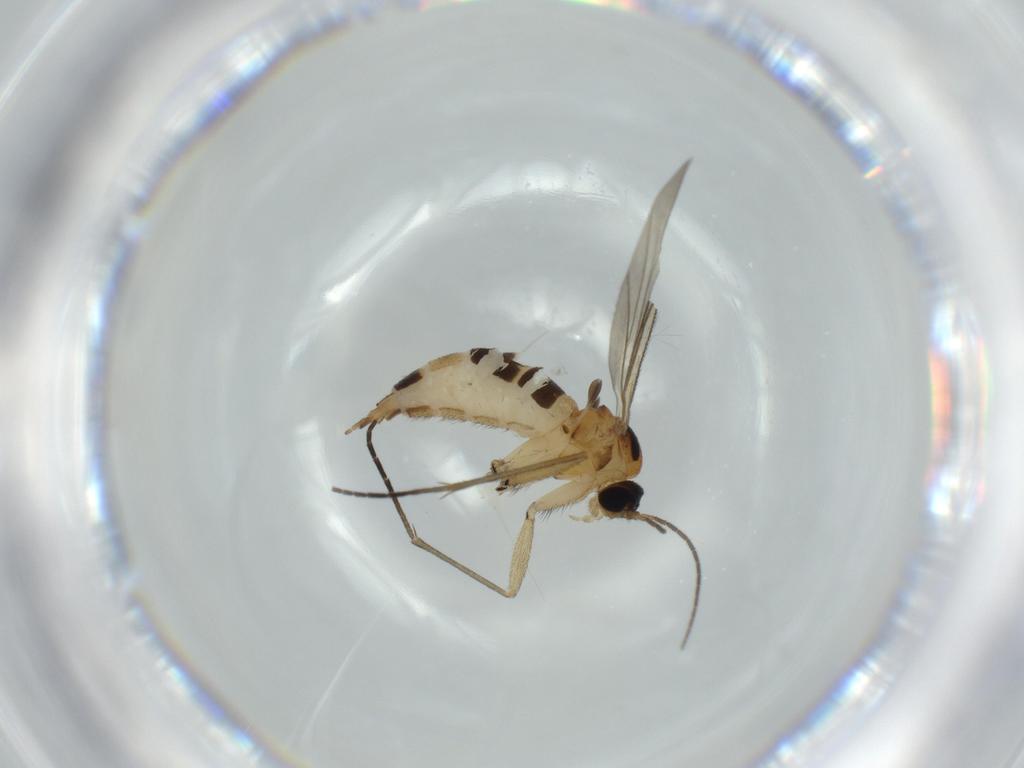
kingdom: Animalia
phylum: Arthropoda
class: Insecta
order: Diptera
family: Sciaridae
